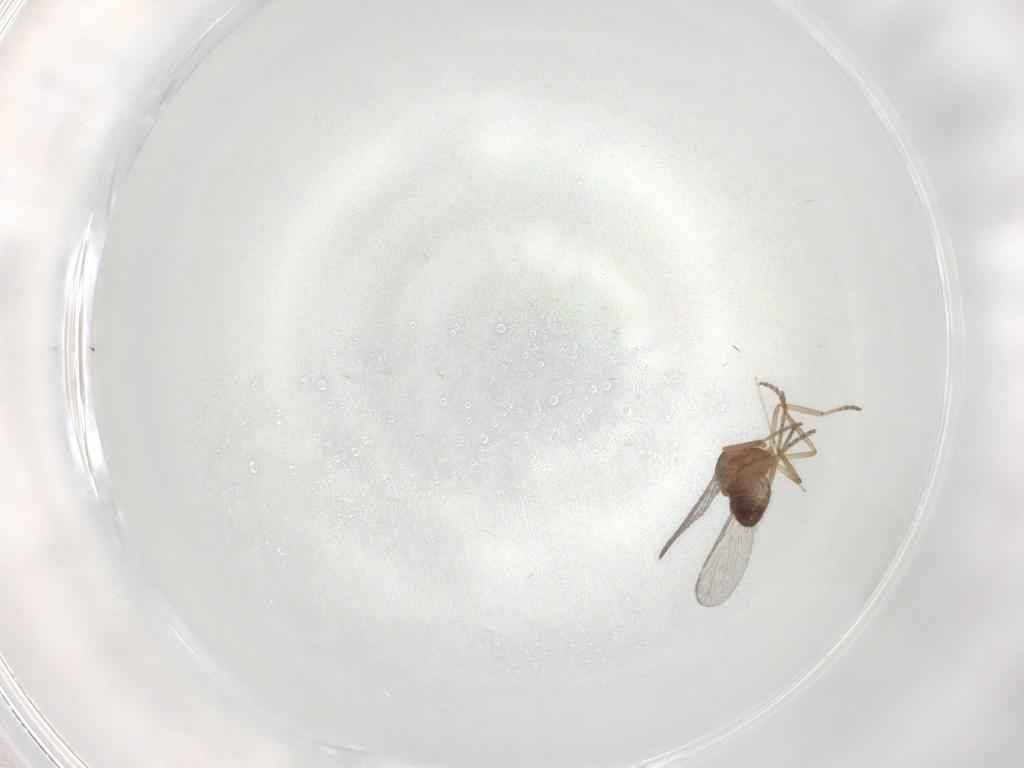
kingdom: Animalia
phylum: Arthropoda
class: Insecta
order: Diptera
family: Ceratopogonidae
